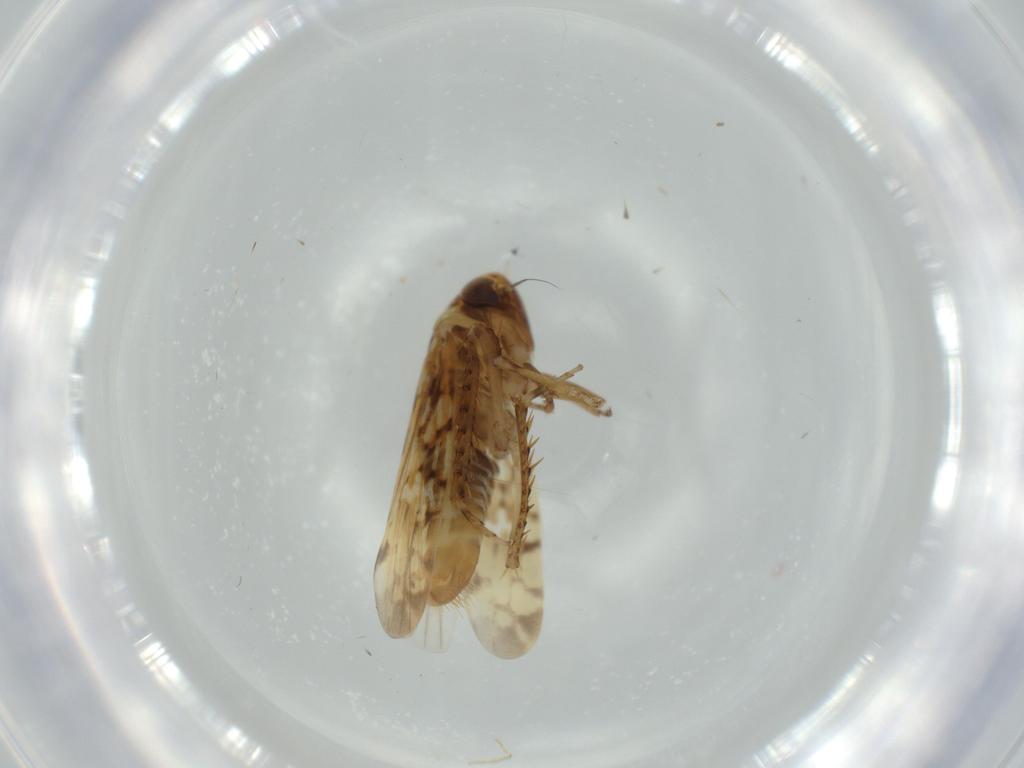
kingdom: Animalia
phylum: Arthropoda
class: Insecta
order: Hemiptera
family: Cicadellidae
